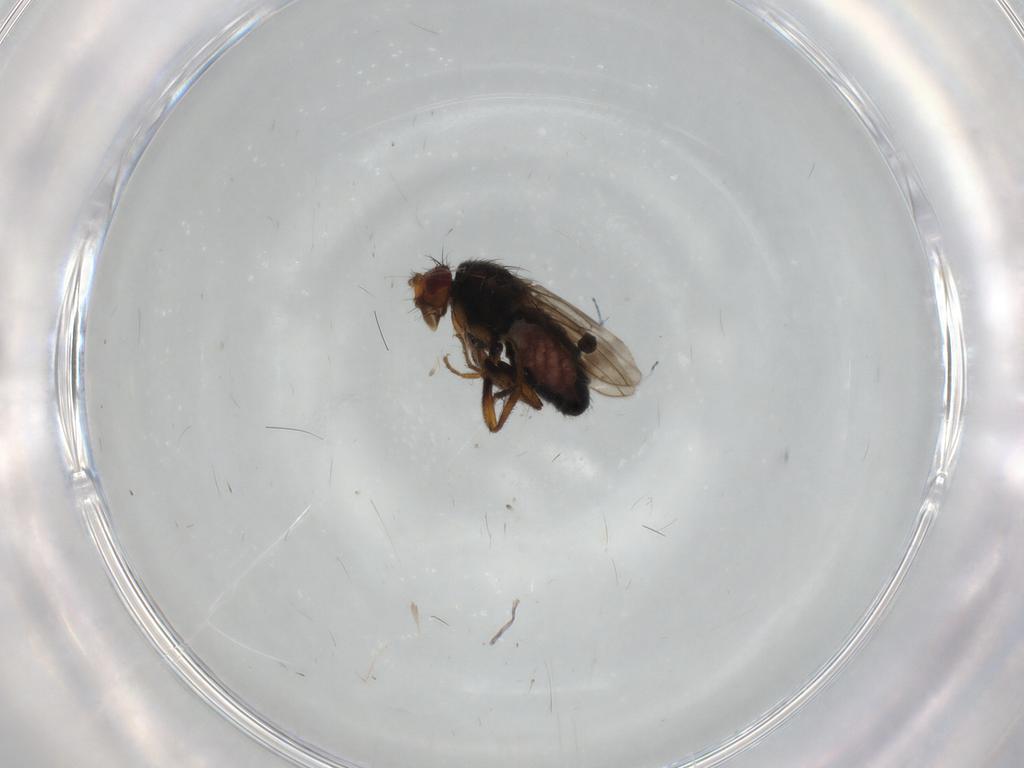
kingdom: Animalia
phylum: Arthropoda
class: Insecta
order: Diptera
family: Sphaeroceridae
